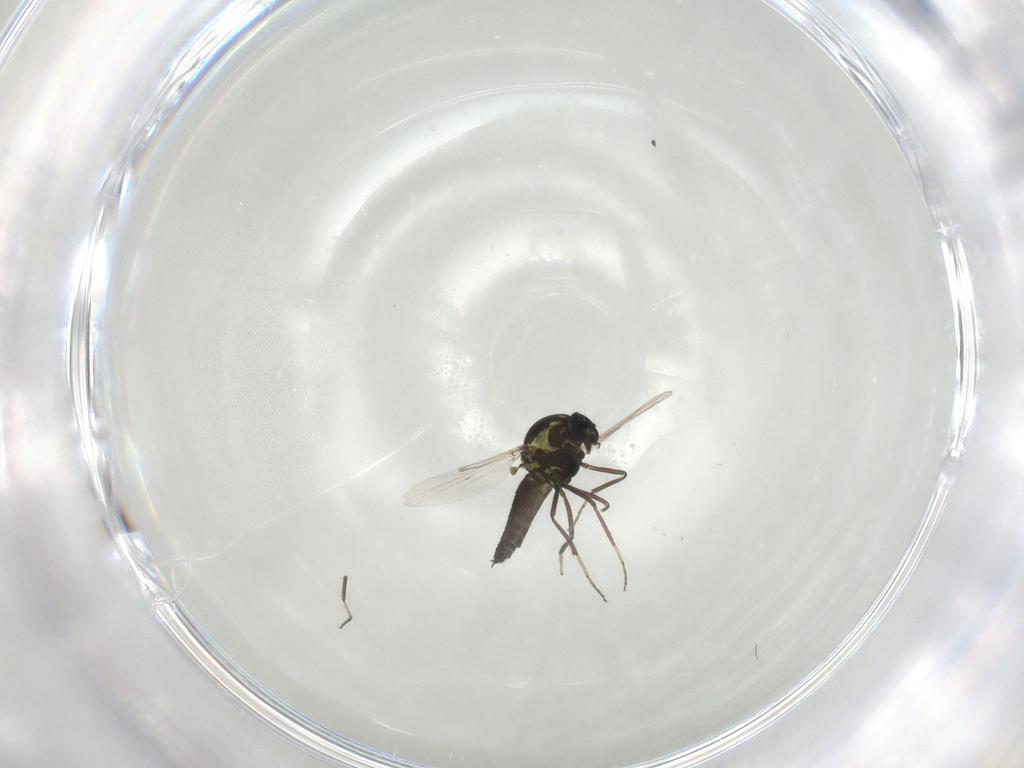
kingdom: Animalia
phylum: Arthropoda
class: Insecta
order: Diptera
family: Ceratopogonidae
